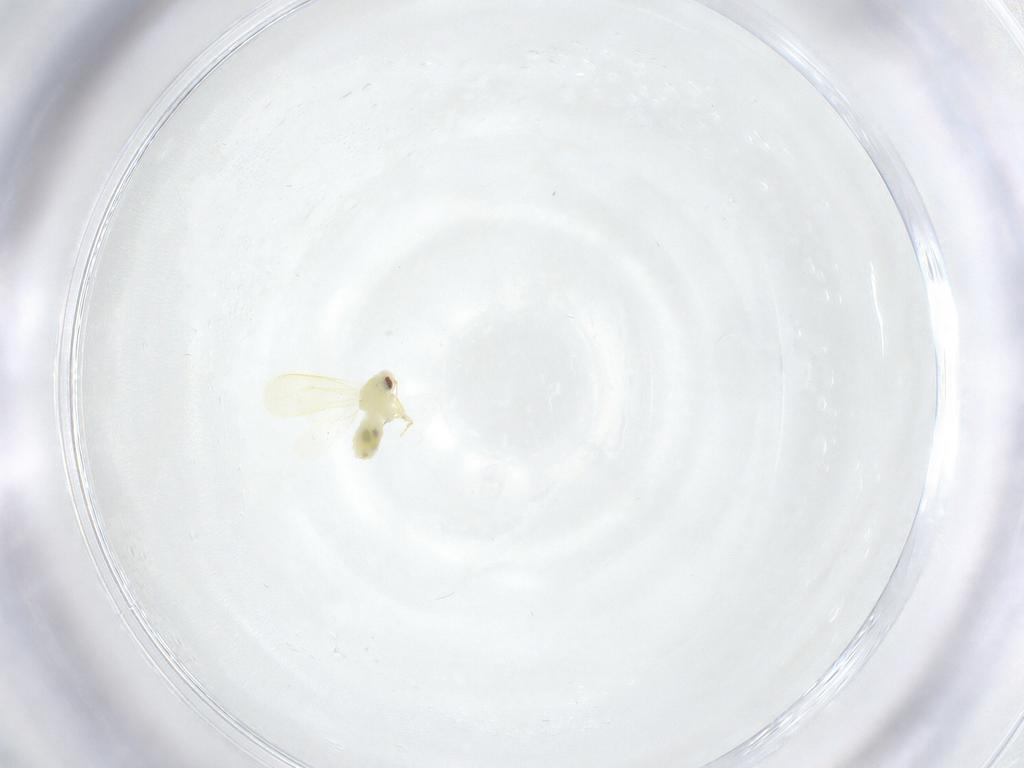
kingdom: Animalia
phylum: Arthropoda
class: Insecta
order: Hemiptera
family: Aleyrodidae
